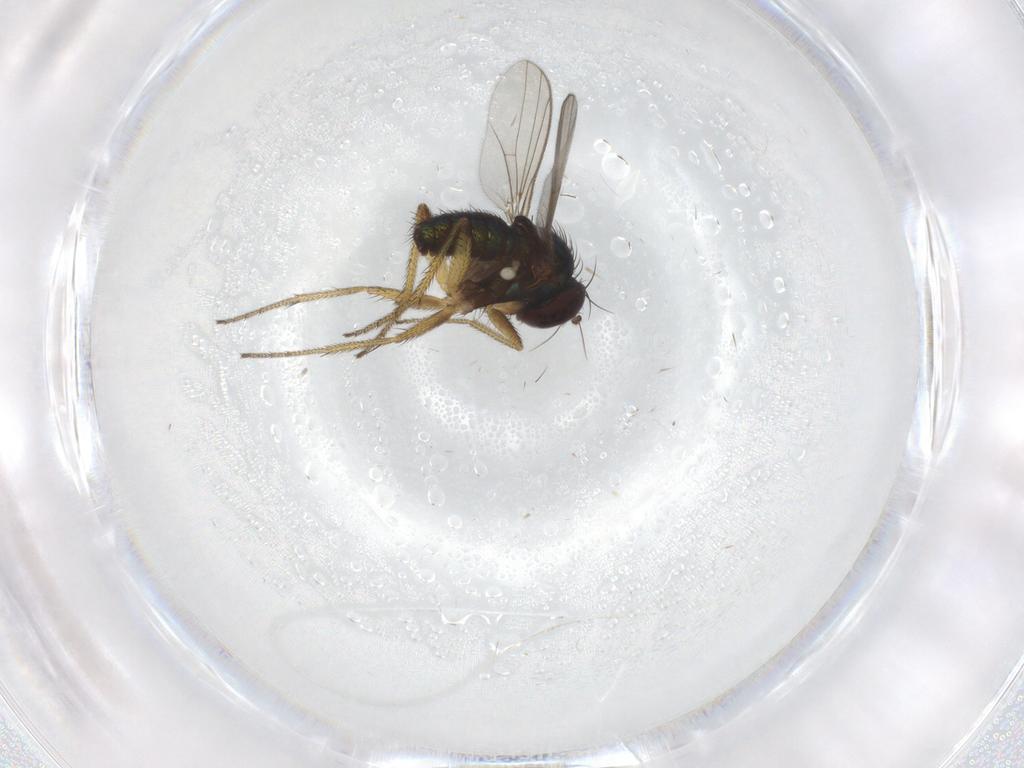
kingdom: Animalia
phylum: Arthropoda
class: Insecta
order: Diptera
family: Dolichopodidae
